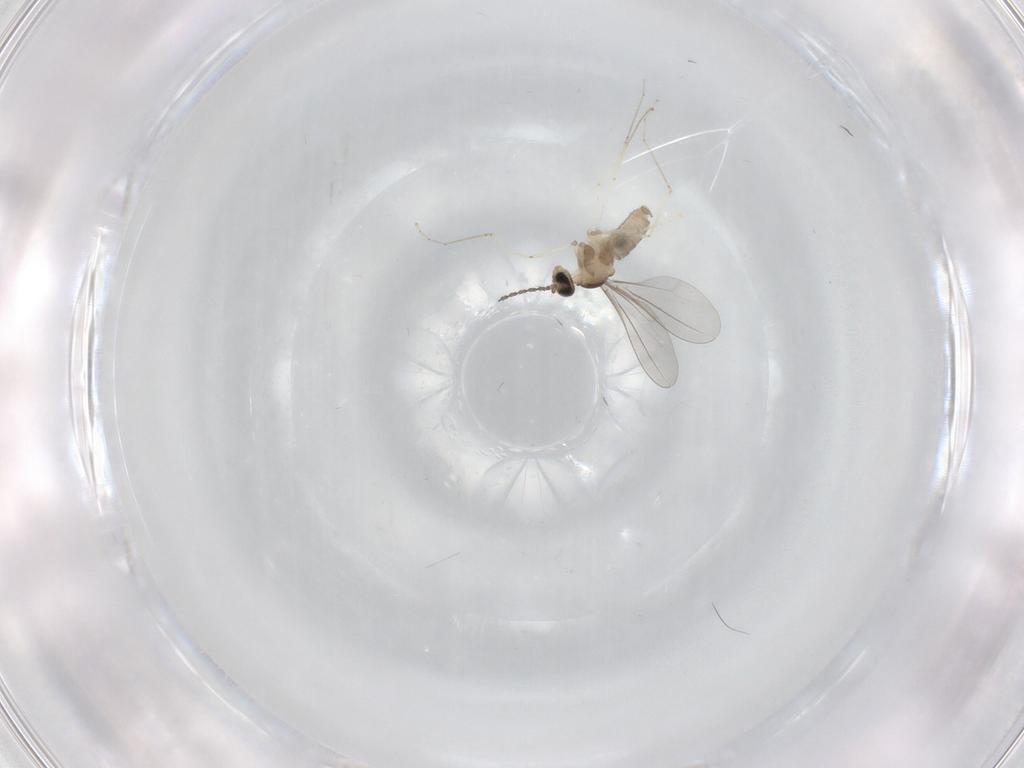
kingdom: Animalia
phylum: Arthropoda
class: Insecta
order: Diptera
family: Cecidomyiidae
